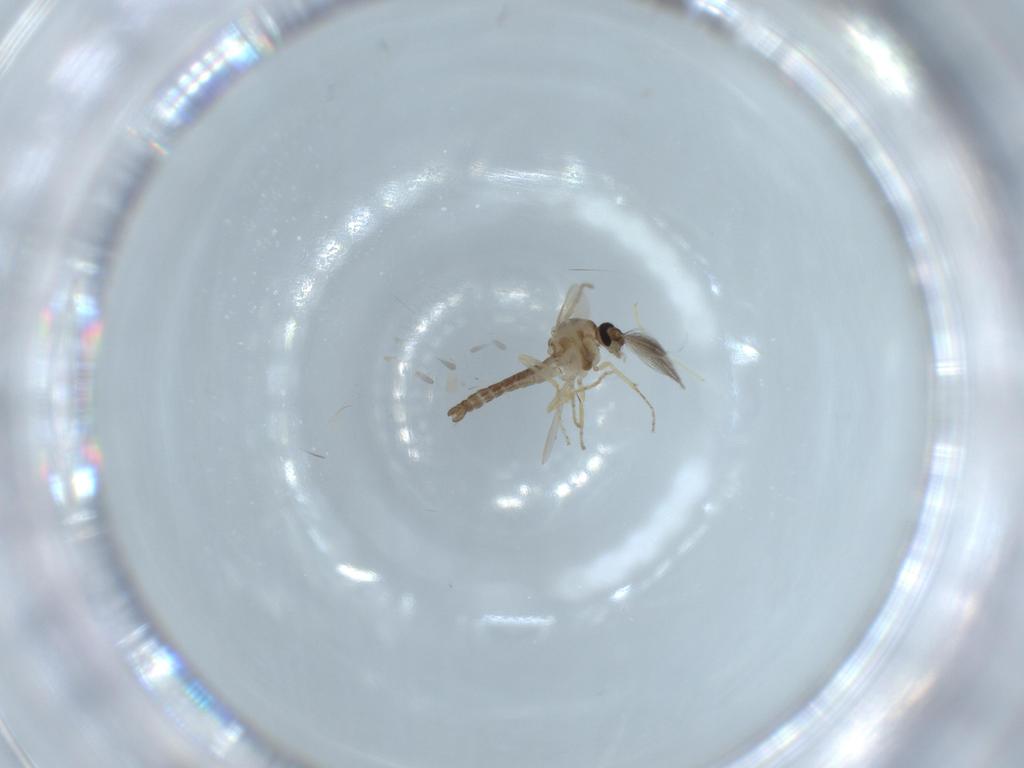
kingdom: Animalia
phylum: Arthropoda
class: Insecta
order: Diptera
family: Ceratopogonidae
